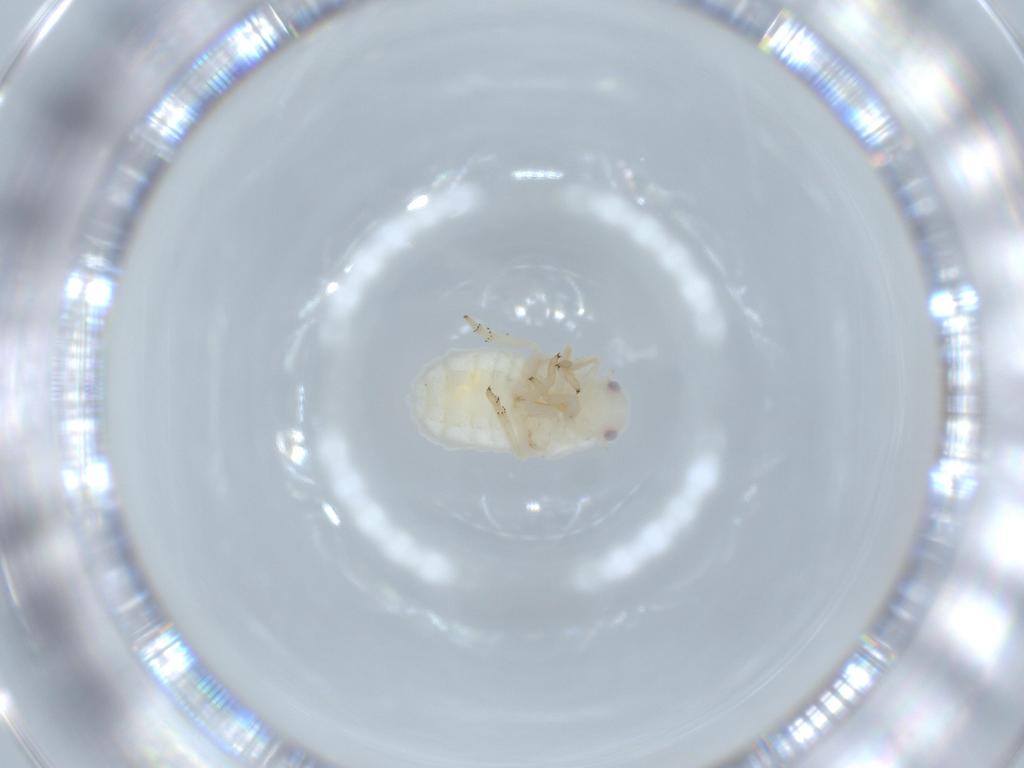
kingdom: Animalia
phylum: Arthropoda
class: Insecta
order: Hemiptera
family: Flatidae
